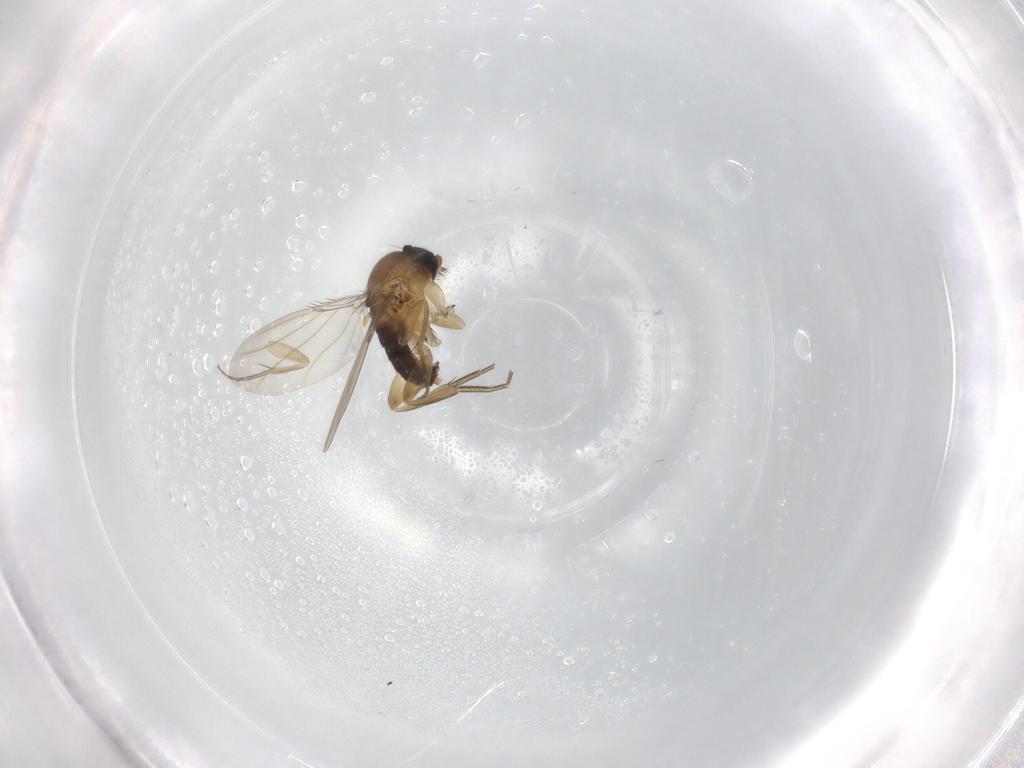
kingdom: Animalia
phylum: Arthropoda
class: Insecta
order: Diptera
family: Phoridae
